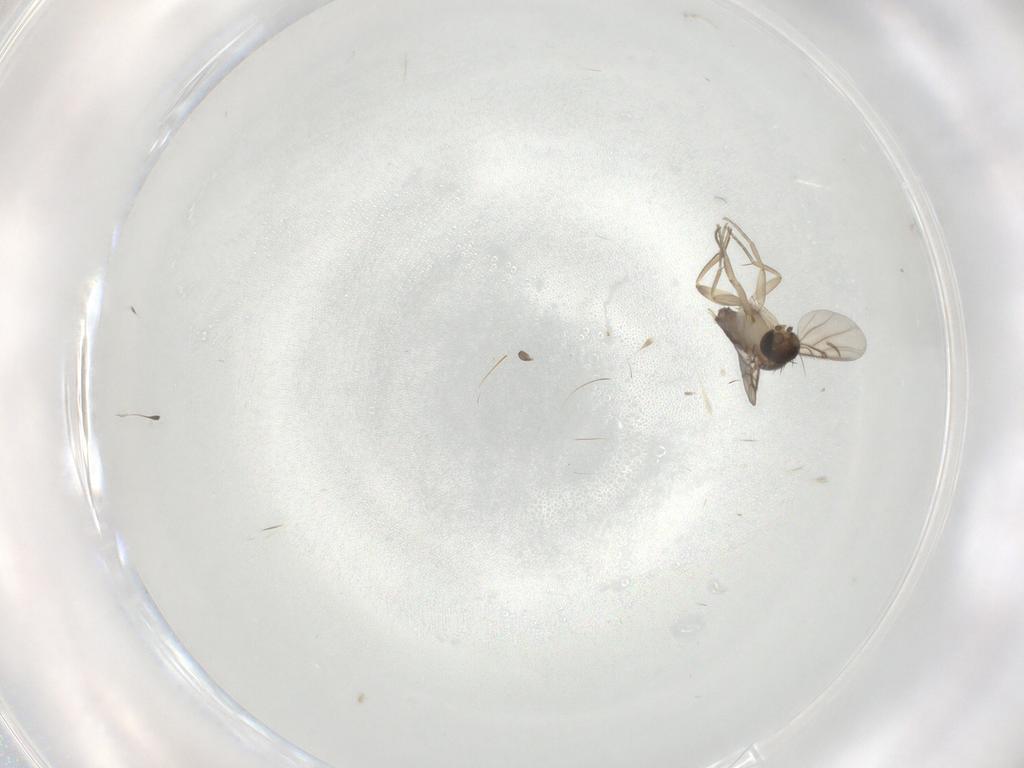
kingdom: Animalia
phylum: Arthropoda
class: Insecta
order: Diptera
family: Phoridae
